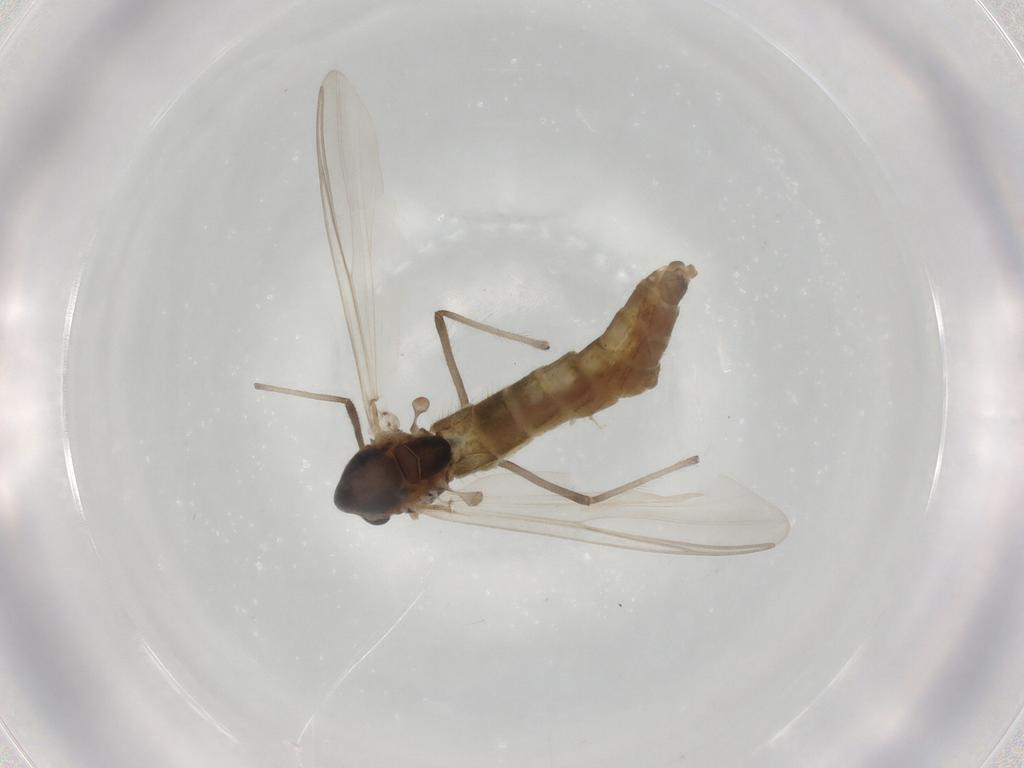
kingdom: Animalia
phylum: Arthropoda
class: Insecta
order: Diptera
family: Chironomidae
